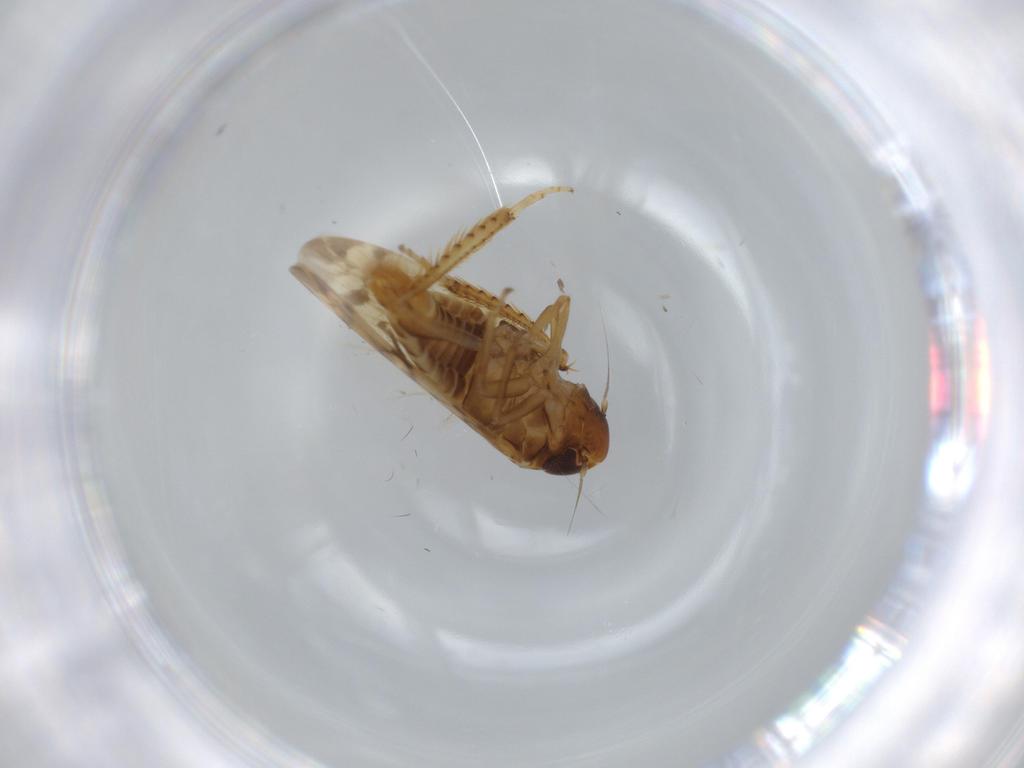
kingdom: Animalia
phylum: Arthropoda
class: Insecta
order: Hemiptera
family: Cicadellidae
